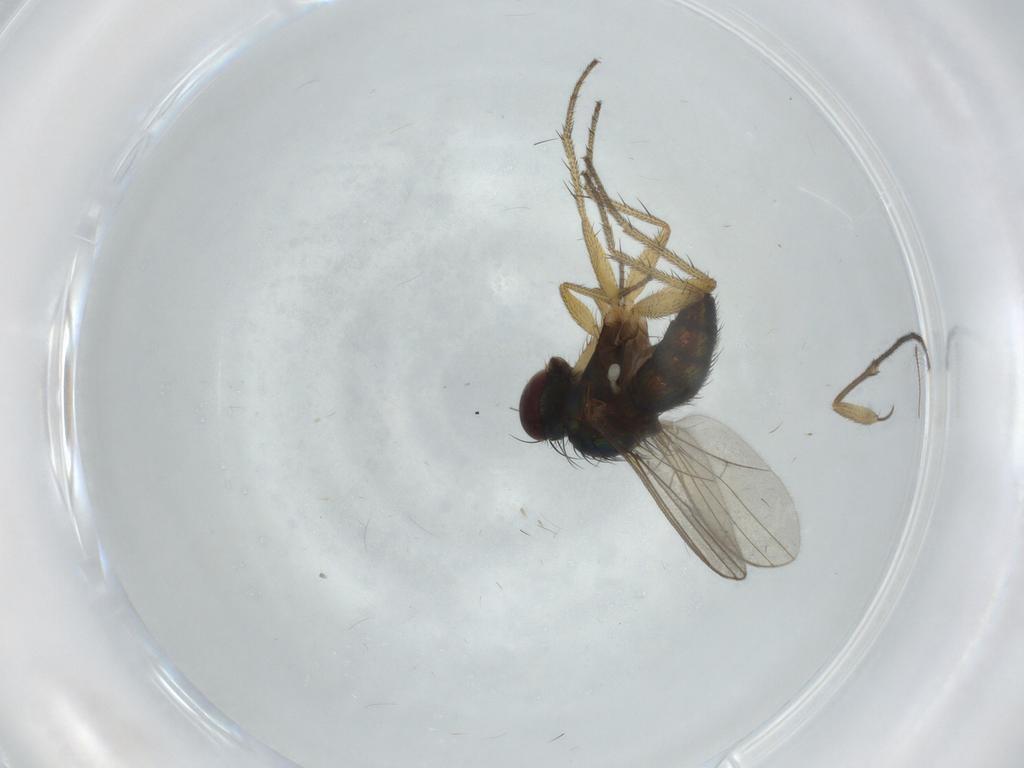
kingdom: Animalia
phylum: Arthropoda
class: Insecta
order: Diptera
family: Keroplatidae
